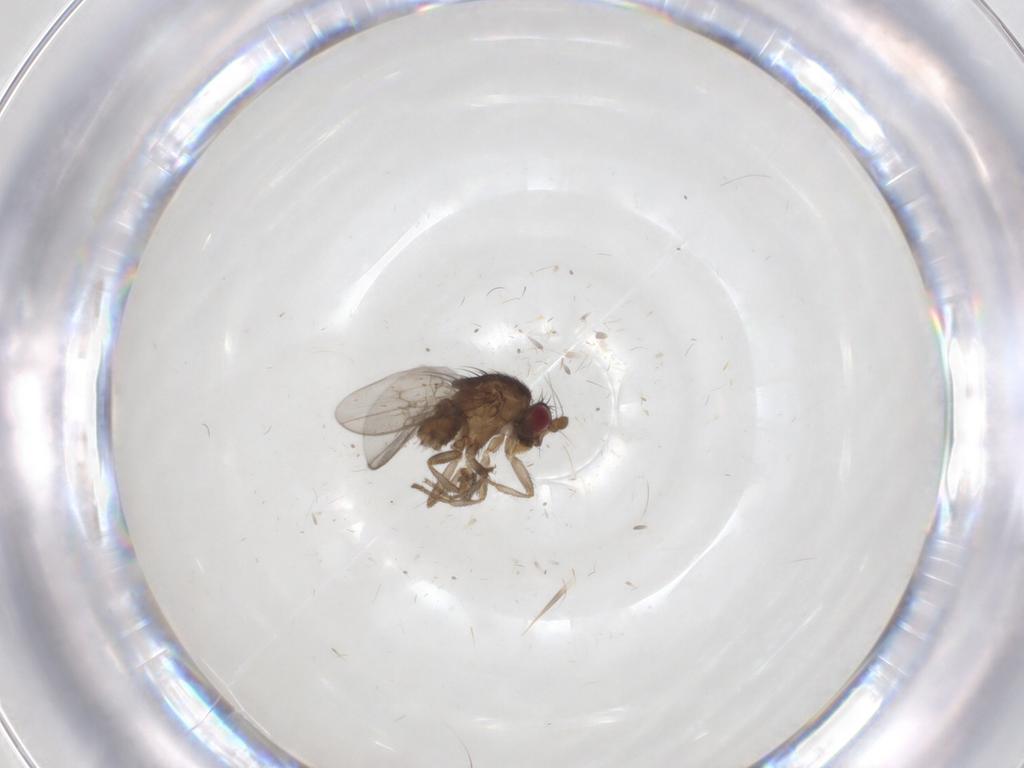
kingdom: Animalia
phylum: Arthropoda
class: Insecta
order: Diptera
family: Sphaeroceridae
